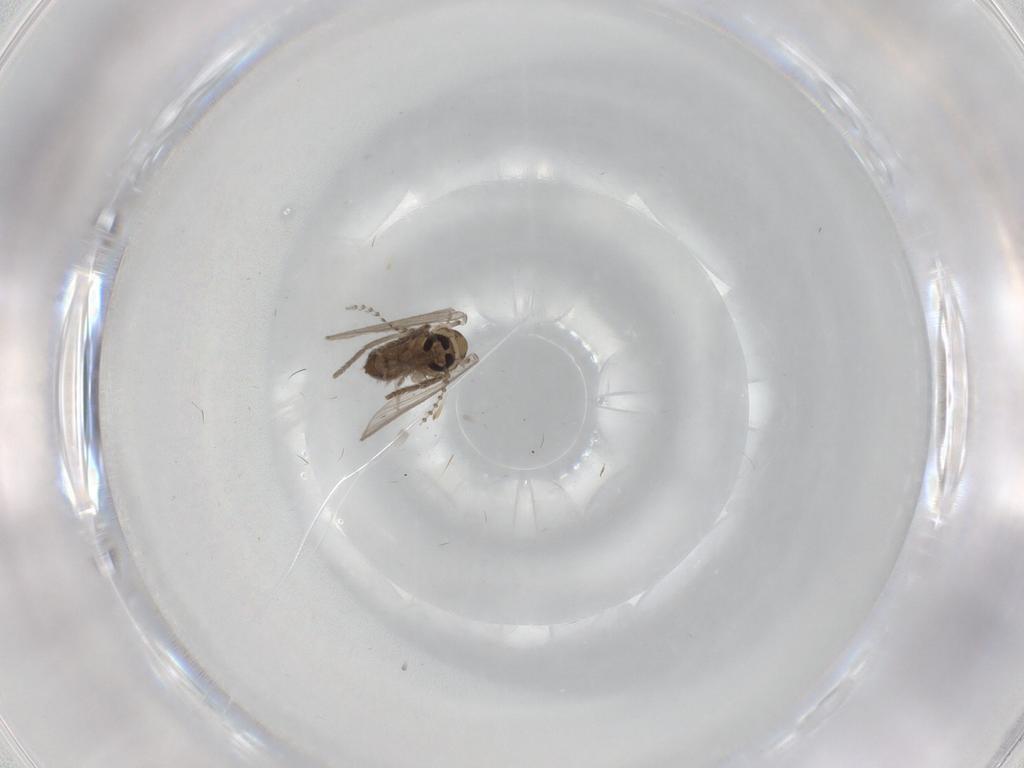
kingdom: Animalia
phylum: Arthropoda
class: Insecta
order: Diptera
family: Psychodidae
